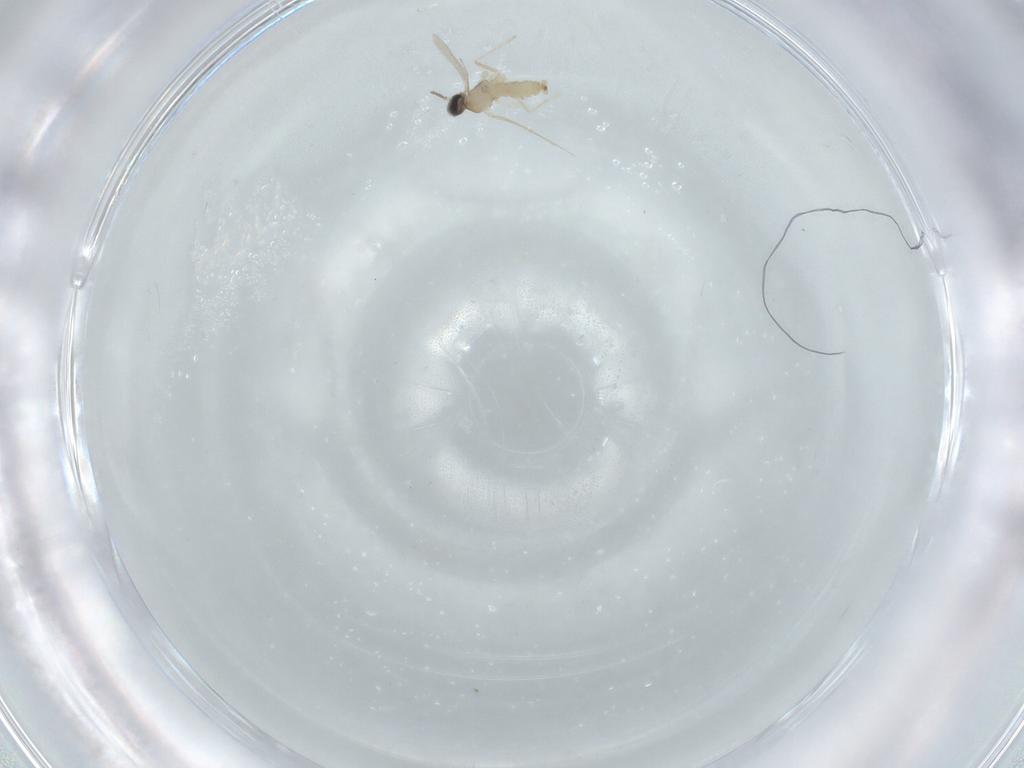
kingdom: Animalia
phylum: Arthropoda
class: Insecta
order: Diptera
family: Cecidomyiidae
